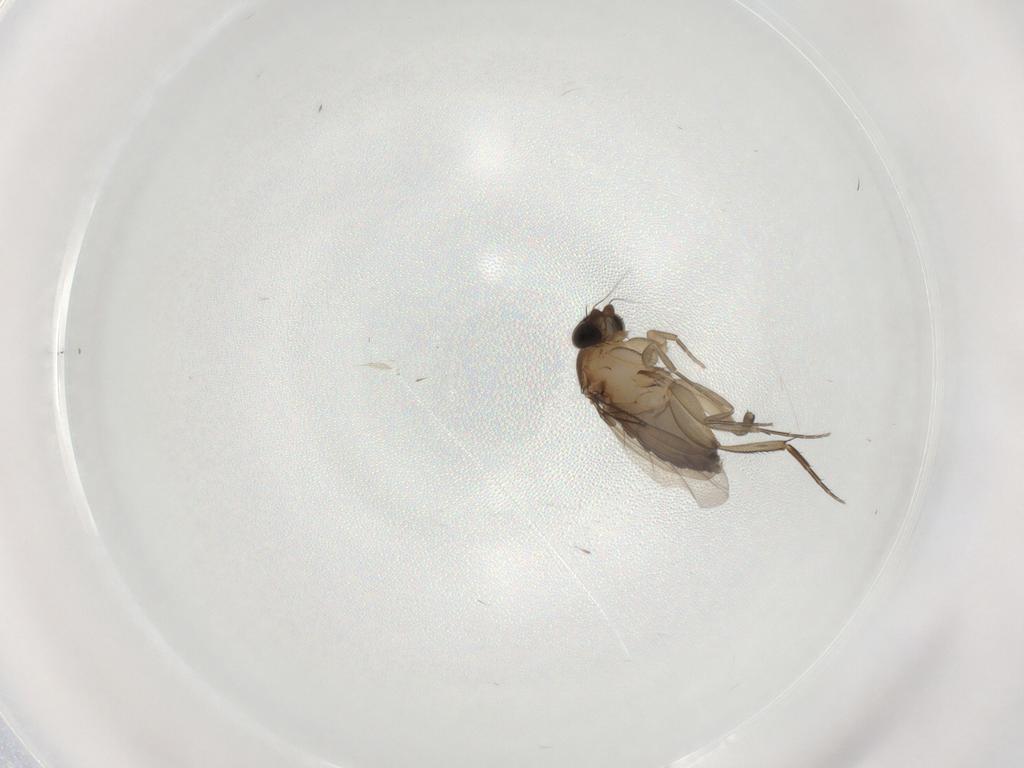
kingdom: Animalia
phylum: Arthropoda
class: Insecta
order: Diptera
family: Phoridae
